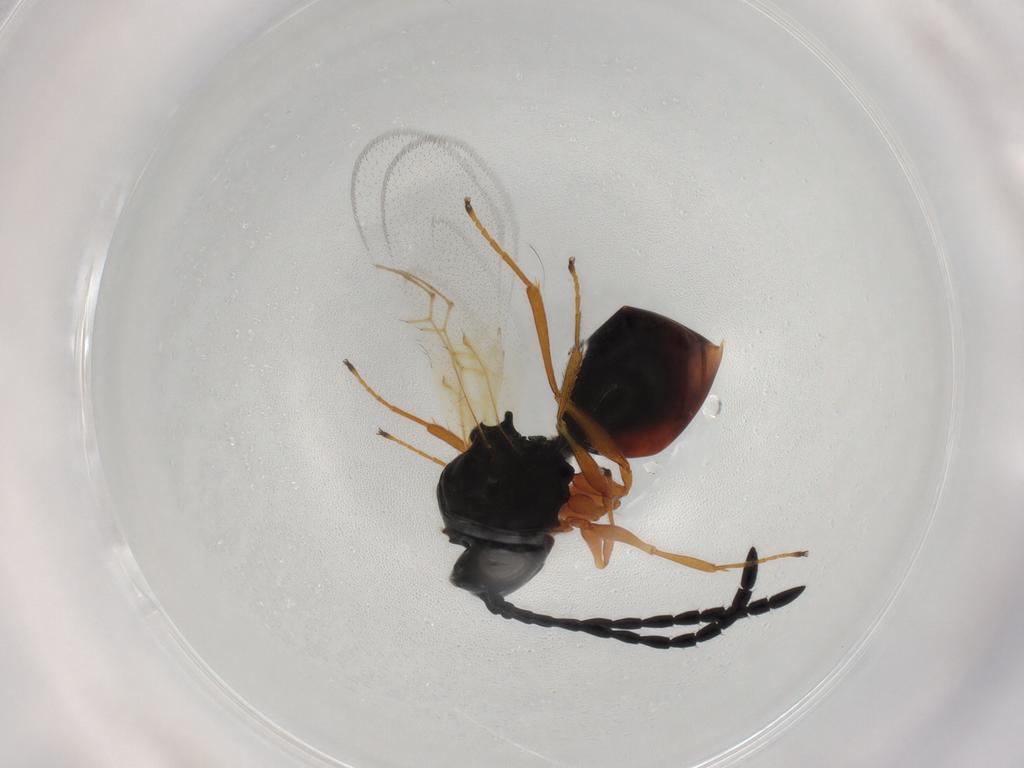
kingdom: Animalia
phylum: Arthropoda
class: Insecta
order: Hymenoptera
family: Figitidae
